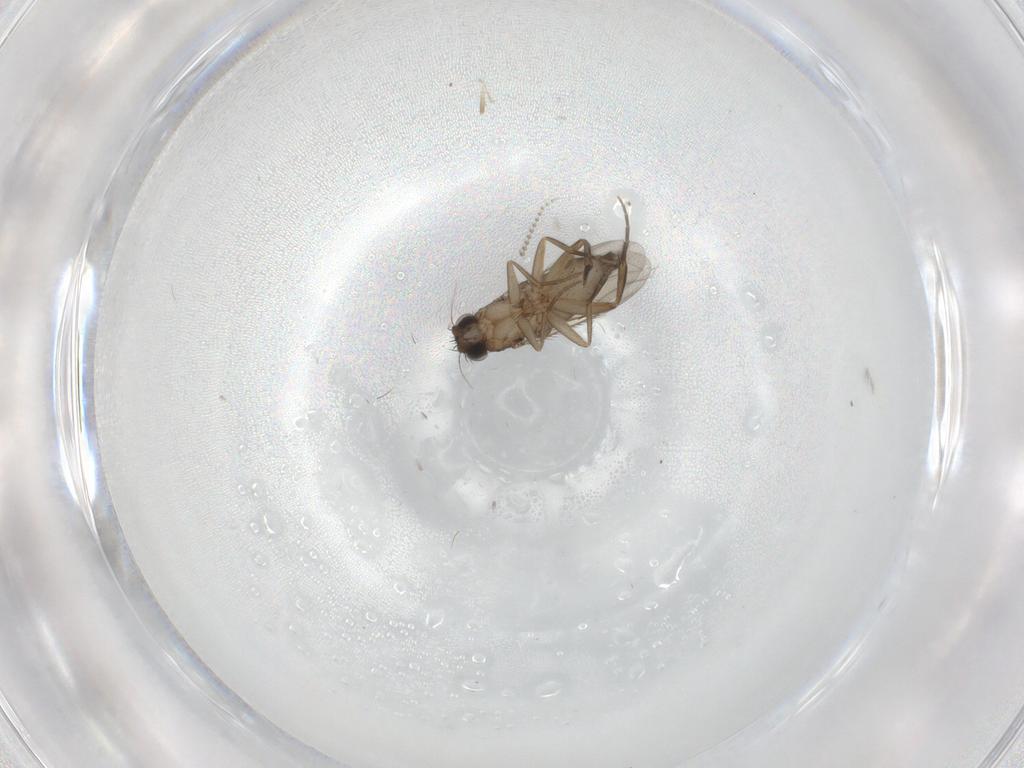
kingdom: Animalia
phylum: Arthropoda
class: Insecta
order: Diptera
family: Phoridae
